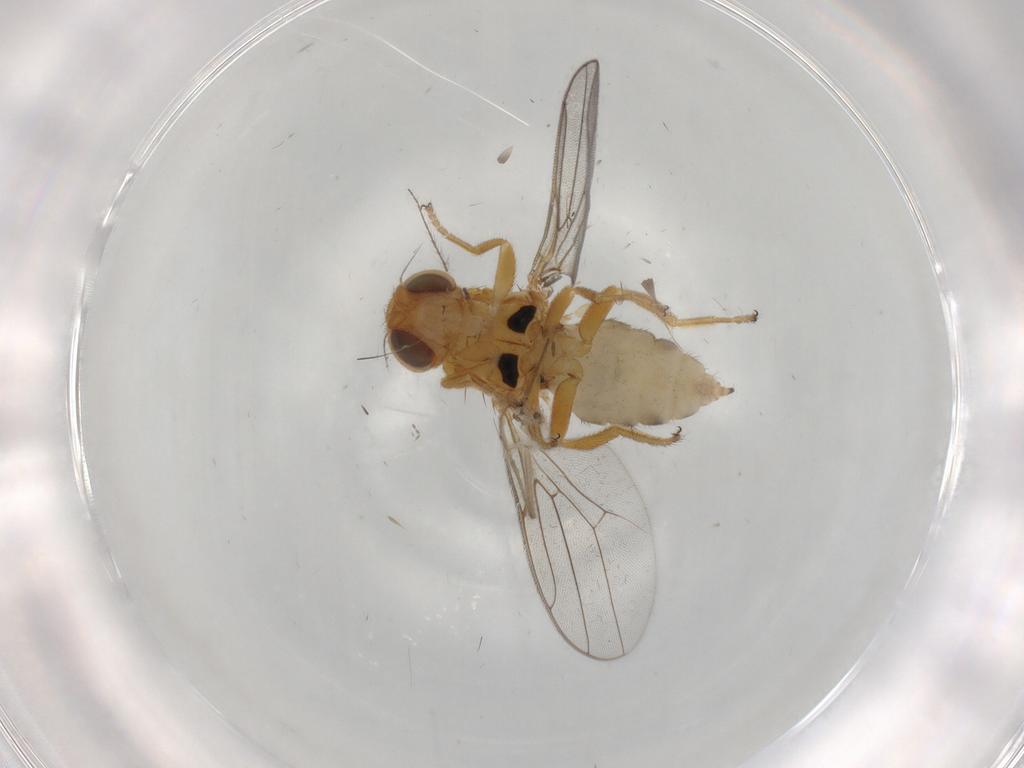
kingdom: Animalia
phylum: Arthropoda
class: Insecta
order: Diptera
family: Chloropidae
